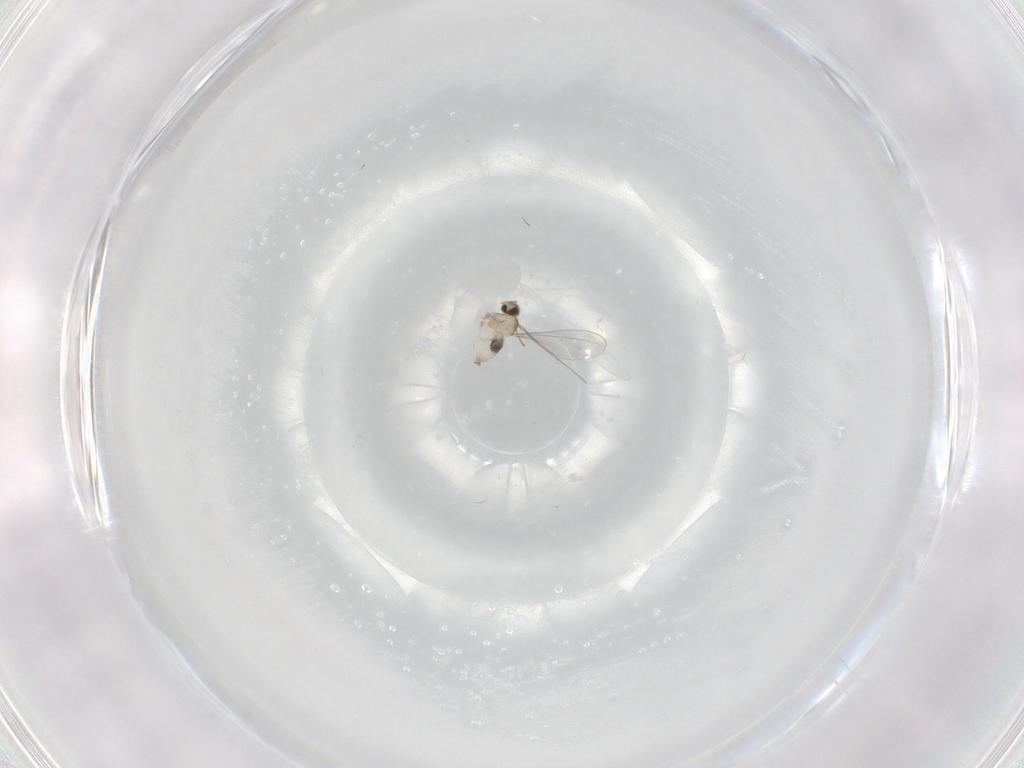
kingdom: Animalia
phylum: Arthropoda
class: Insecta
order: Diptera
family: Cecidomyiidae
